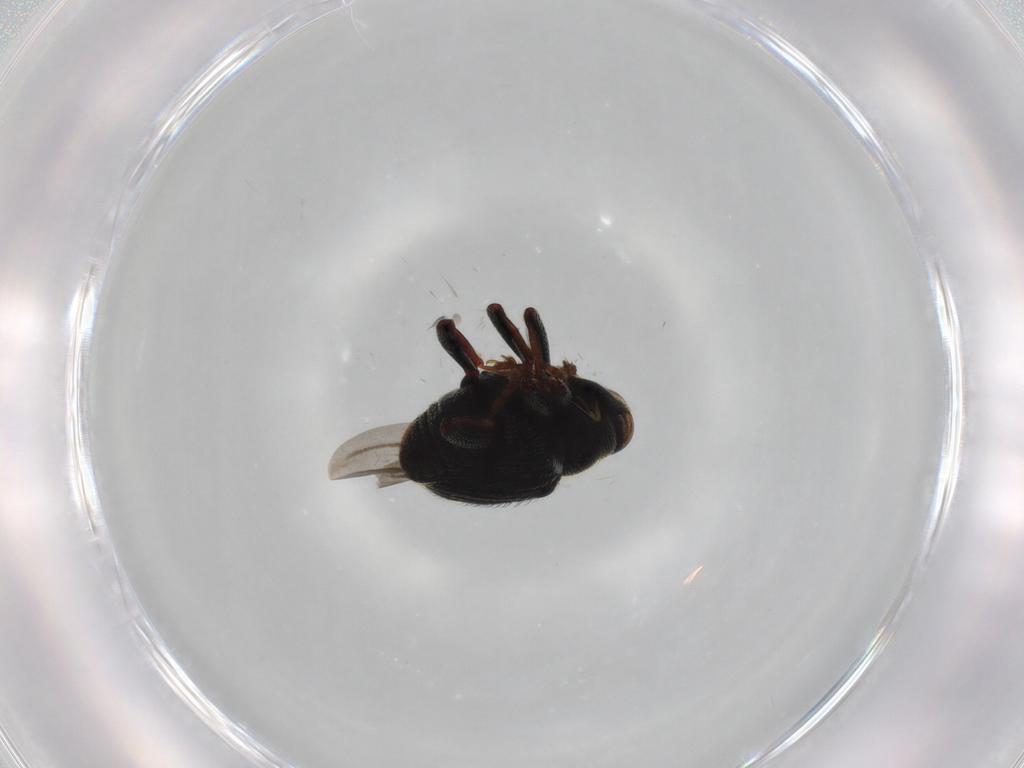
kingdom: Animalia
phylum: Arthropoda
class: Insecta
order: Coleoptera
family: Curculionidae
